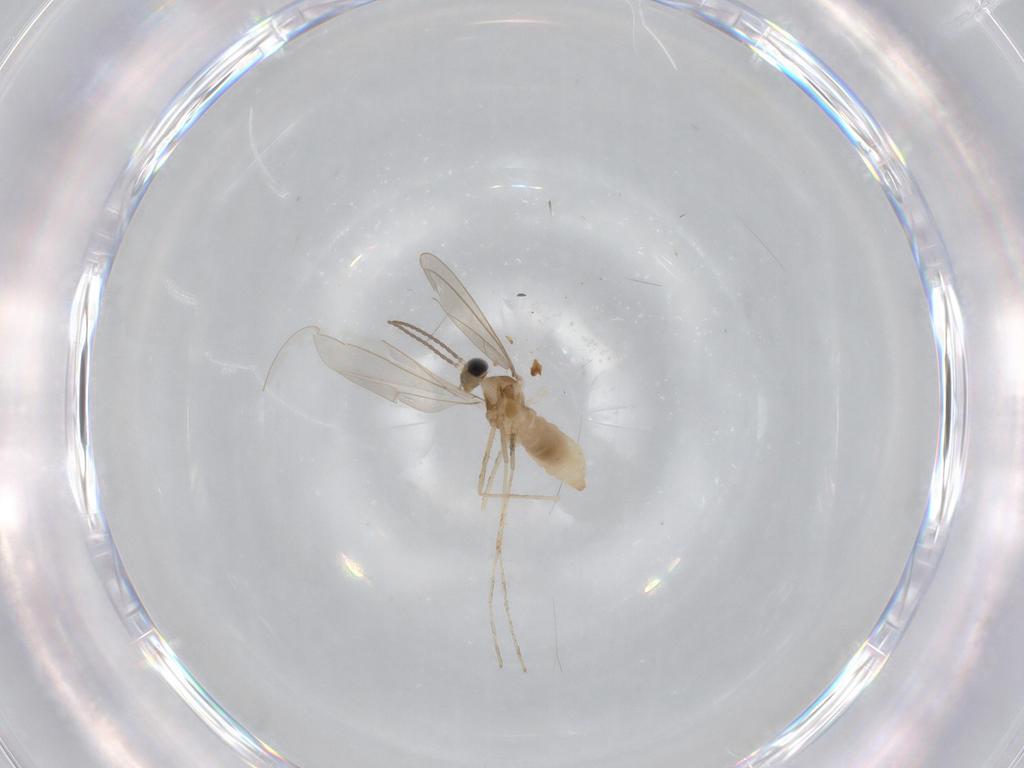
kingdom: Animalia
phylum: Arthropoda
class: Insecta
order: Diptera
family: Cecidomyiidae
